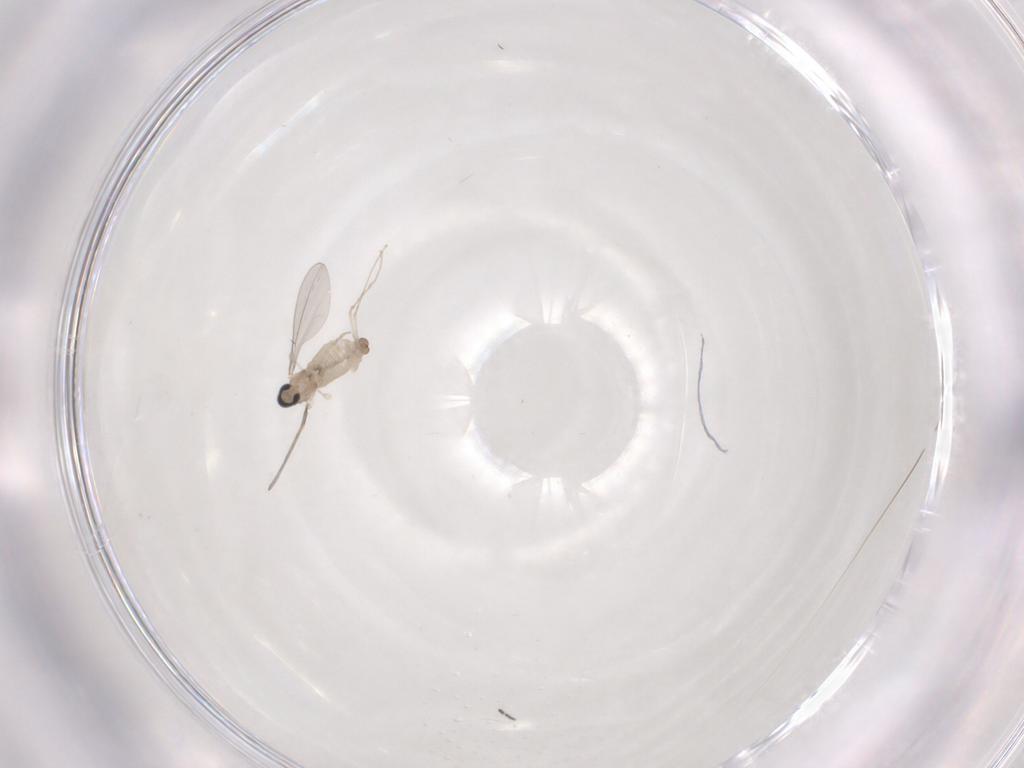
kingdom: Animalia
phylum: Arthropoda
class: Insecta
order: Diptera
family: Cecidomyiidae
